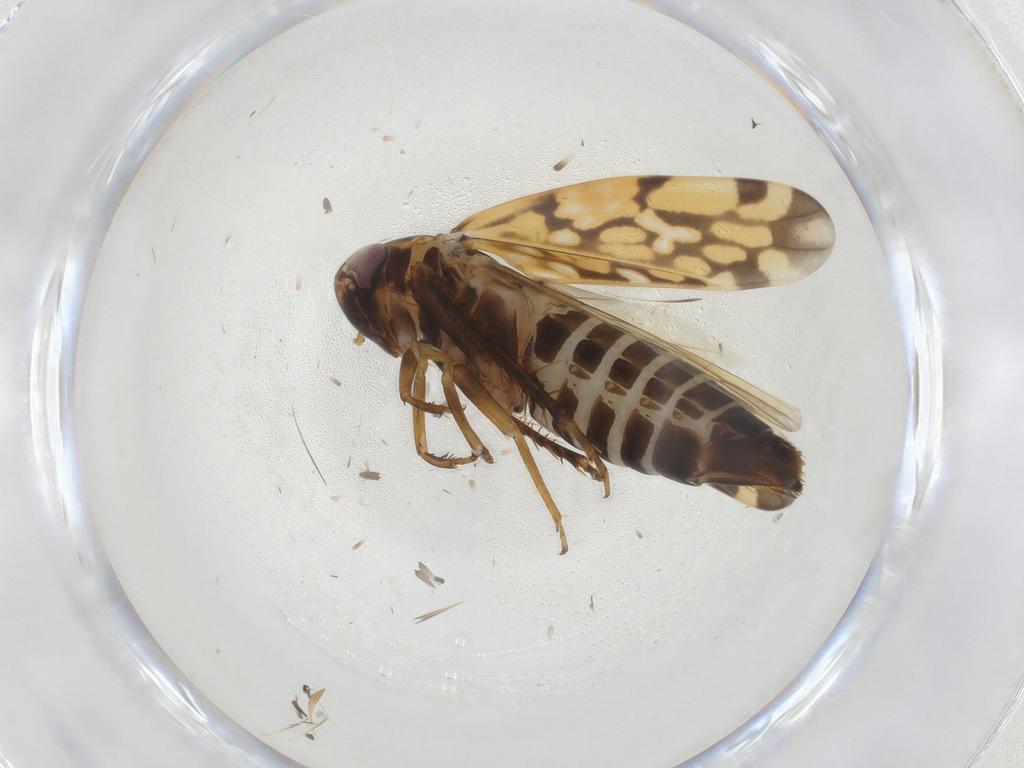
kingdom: Animalia
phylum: Arthropoda
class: Insecta
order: Hemiptera
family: Cicadellidae
